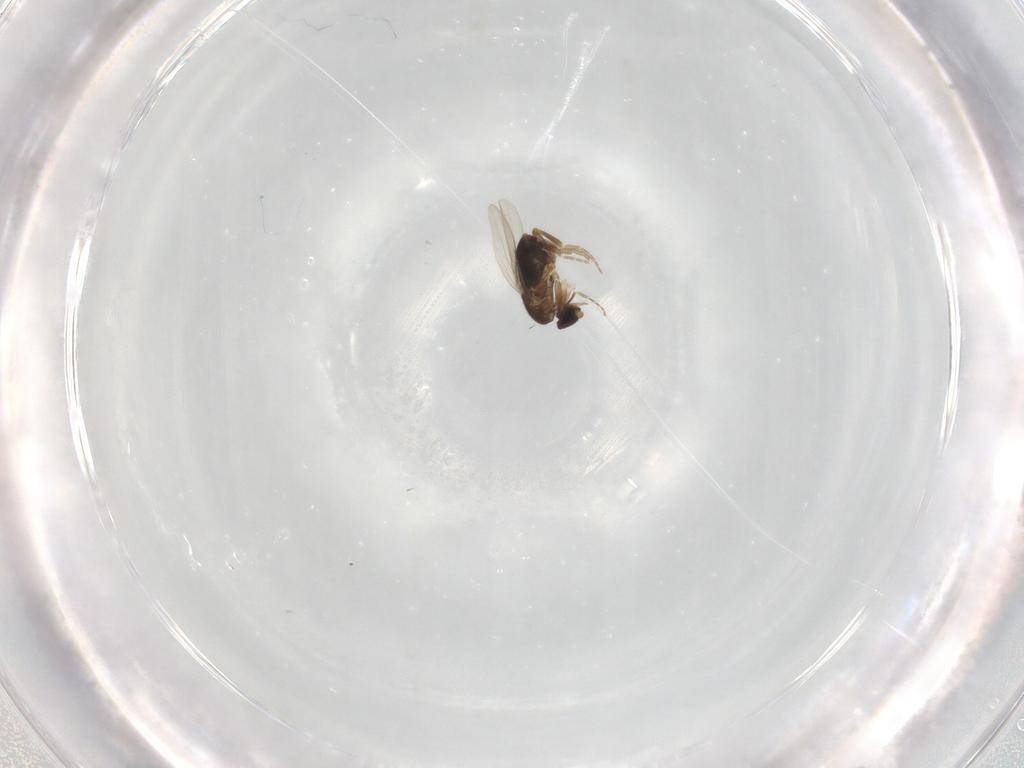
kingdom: Animalia
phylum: Arthropoda
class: Insecta
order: Diptera
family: Phoridae
